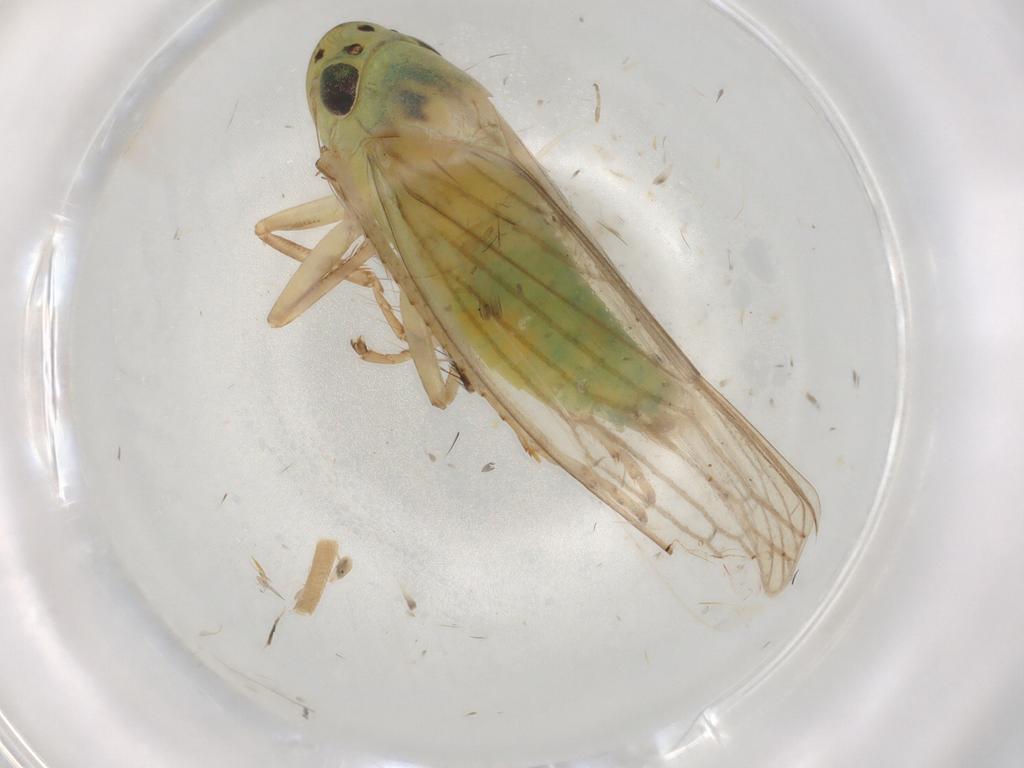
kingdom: Animalia
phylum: Arthropoda
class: Insecta
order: Hemiptera
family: Cicadellidae
